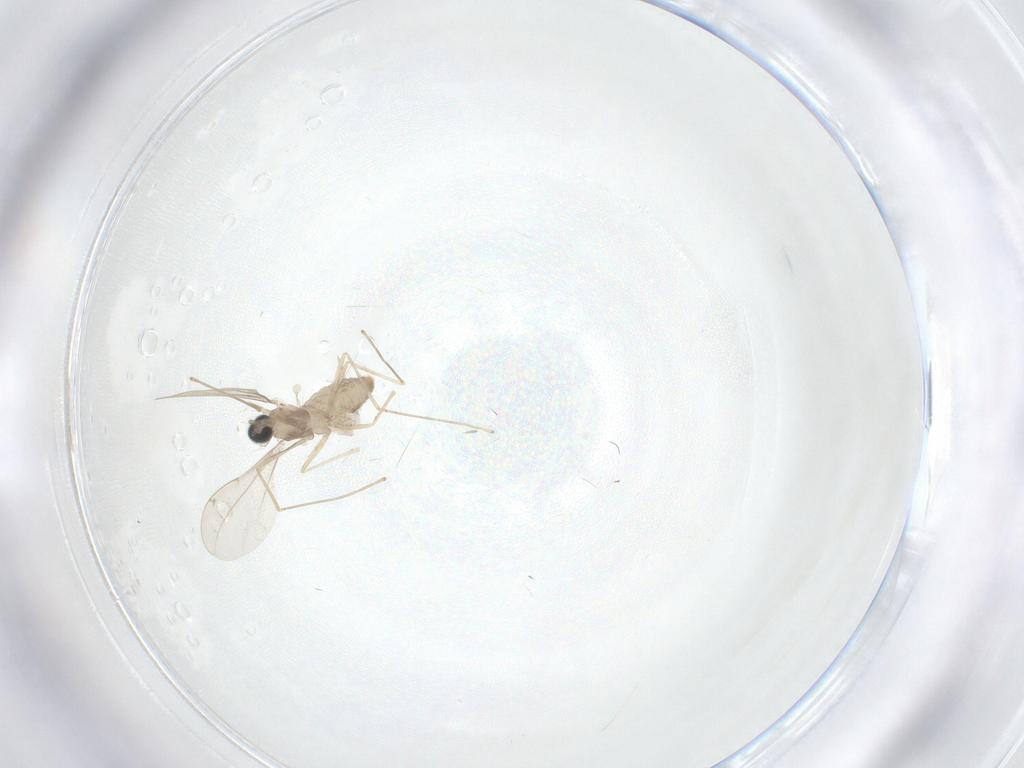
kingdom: Animalia
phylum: Arthropoda
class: Insecta
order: Diptera
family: Cecidomyiidae
